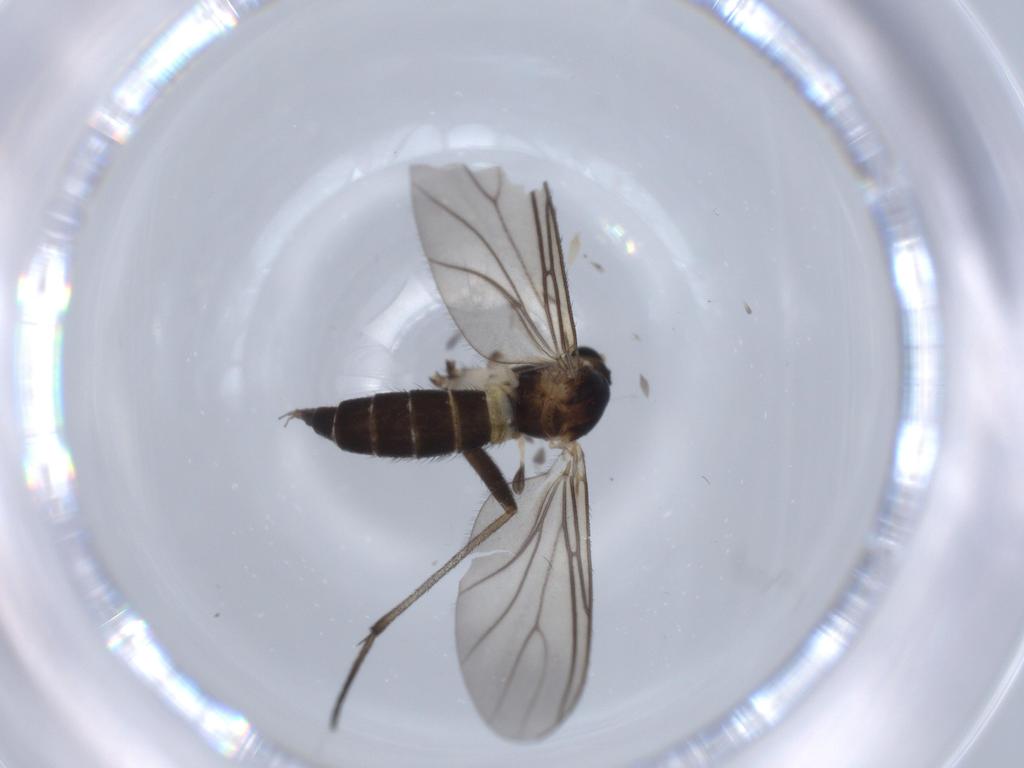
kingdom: Animalia
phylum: Arthropoda
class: Insecta
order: Diptera
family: Sciaridae
